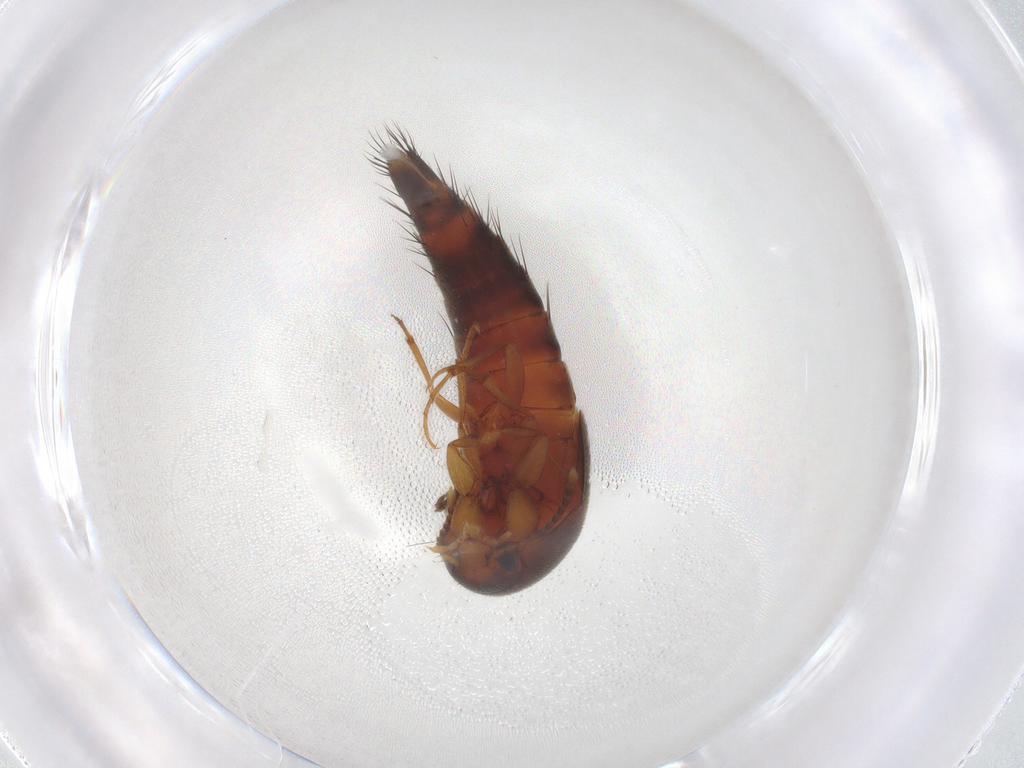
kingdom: Animalia
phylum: Arthropoda
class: Insecta
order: Coleoptera
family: Staphylinidae
